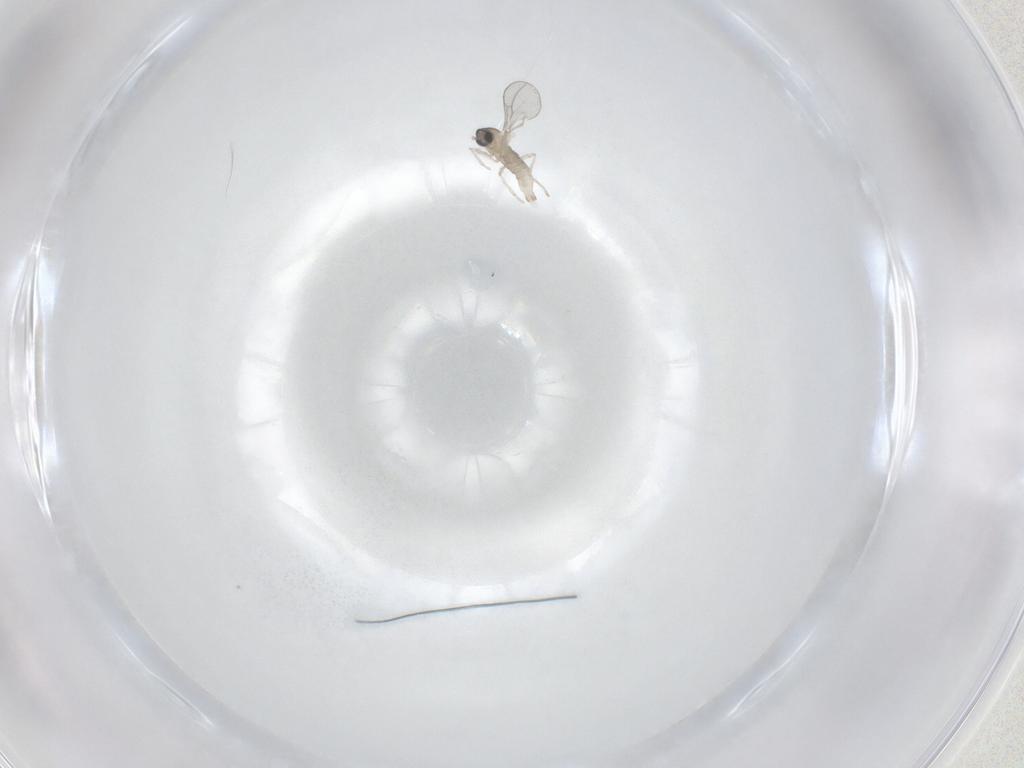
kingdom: Animalia
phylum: Arthropoda
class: Insecta
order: Diptera
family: Cecidomyiidae
